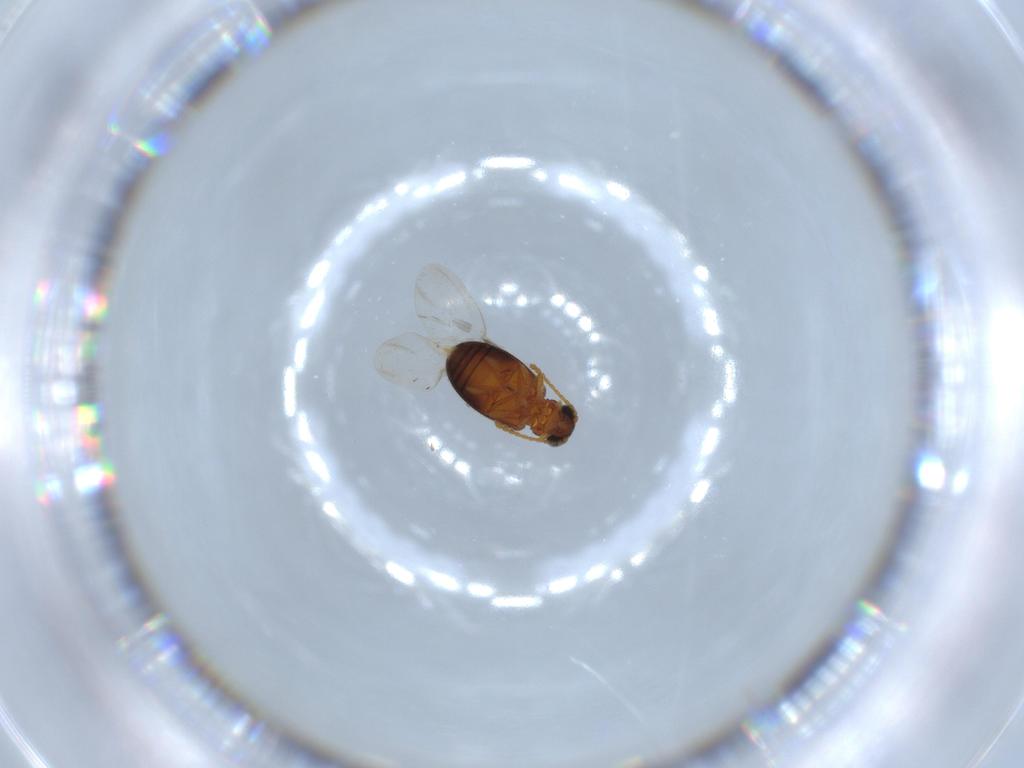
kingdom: Animalia
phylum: Arthropoda
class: Insecta
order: Coleoptera
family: Aderidae
